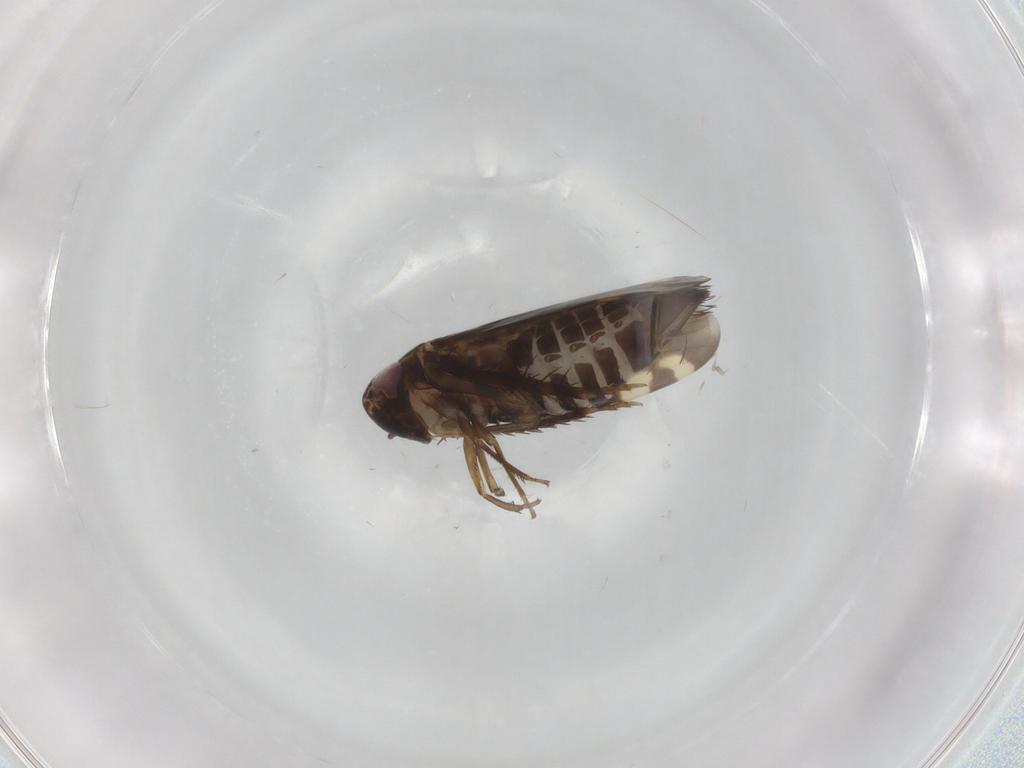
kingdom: Animalia
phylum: Arthropoda
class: Insecta
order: Hemiptera
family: Cicadellidae
